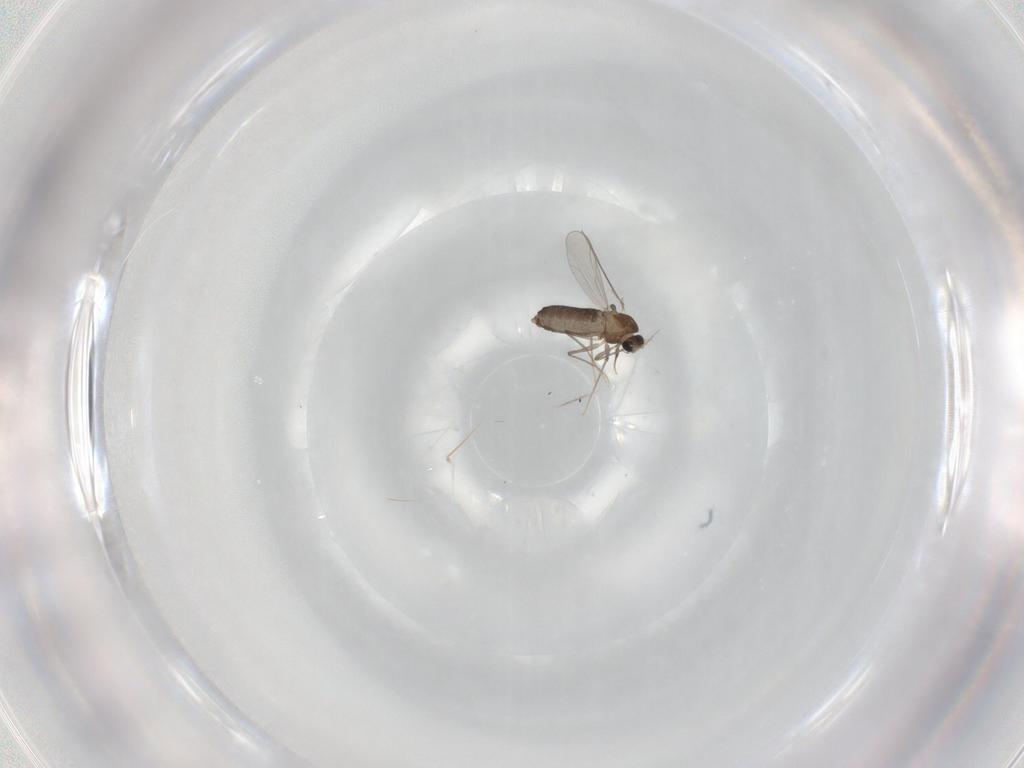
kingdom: Animalia
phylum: Arthropoda
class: Insecta
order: Diptera
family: Chironomidae
